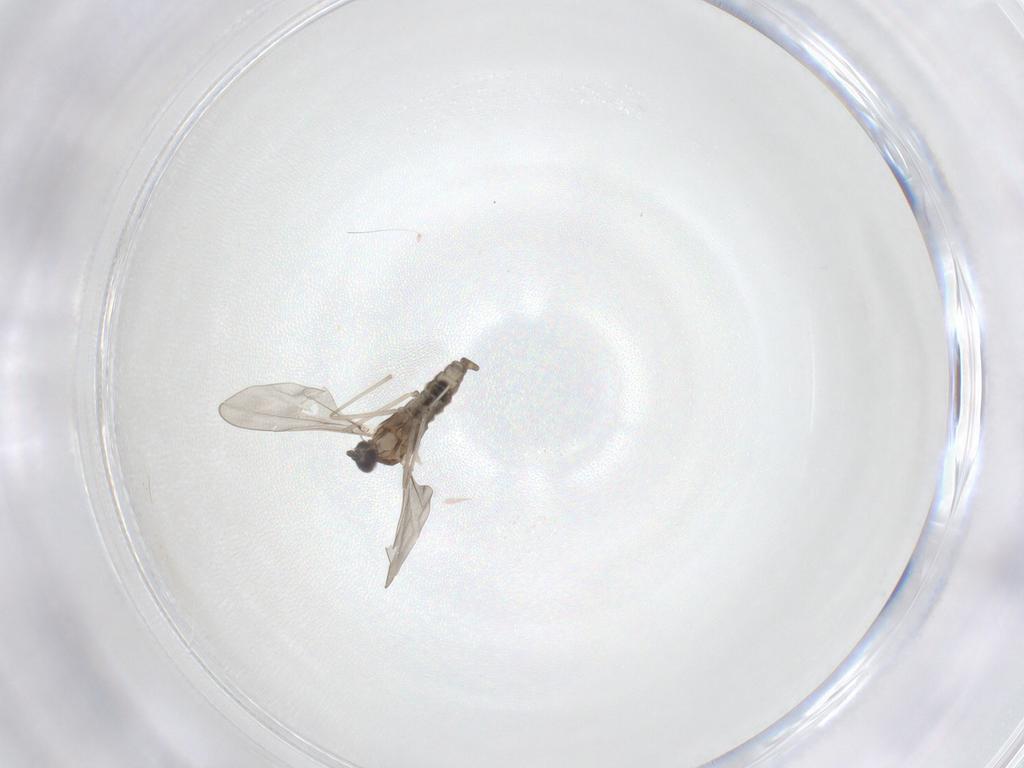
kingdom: Animalia
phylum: Arthropoda
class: Insecta
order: Diptera
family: Cecidomyiidae
